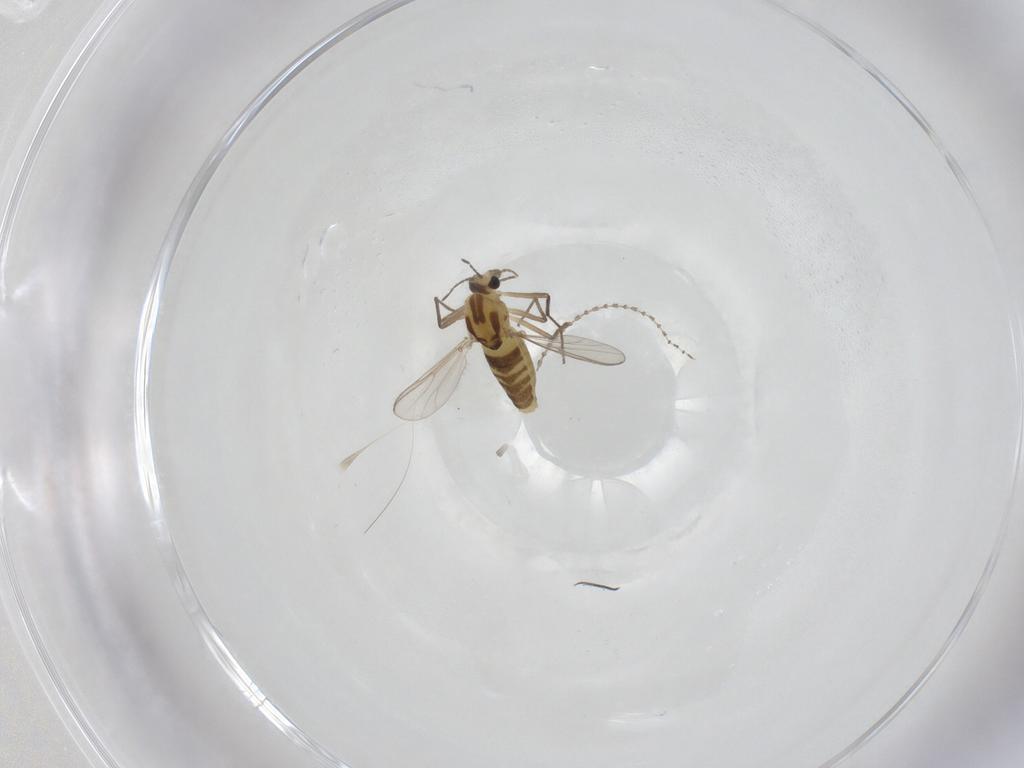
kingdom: Animalia
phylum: Arthropoda
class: Insecta
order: Diptera
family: Cecidomyiidae
